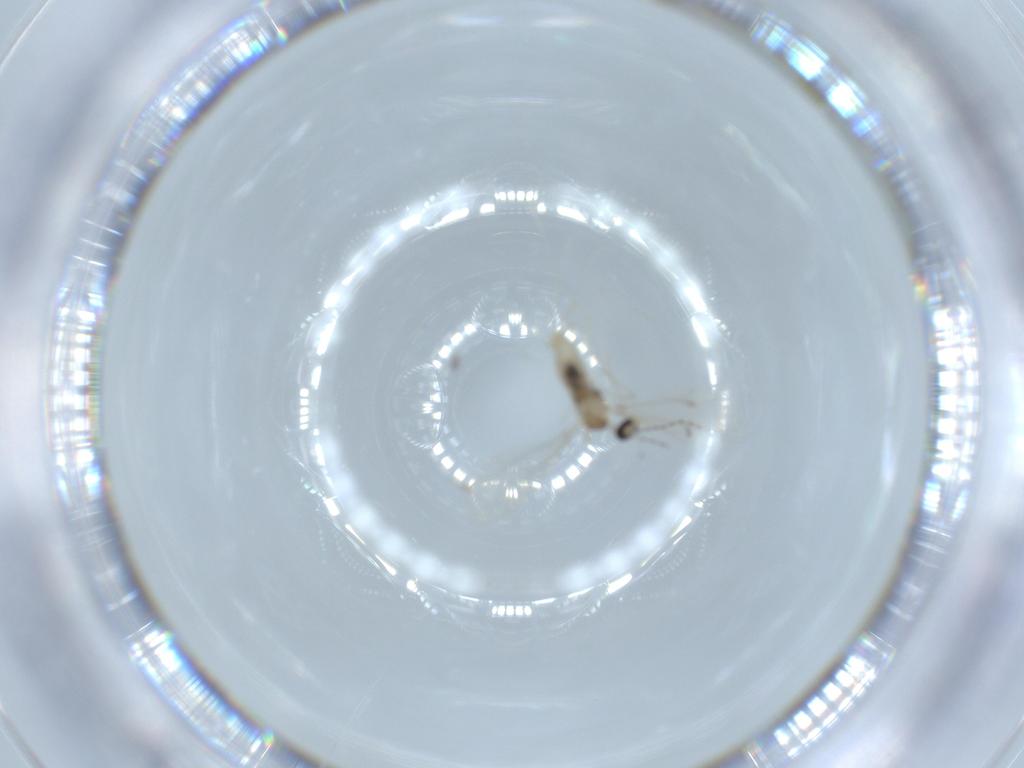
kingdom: Animalia
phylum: Arthropoda
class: Insecta
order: Diptera
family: Cecidomyiidae
